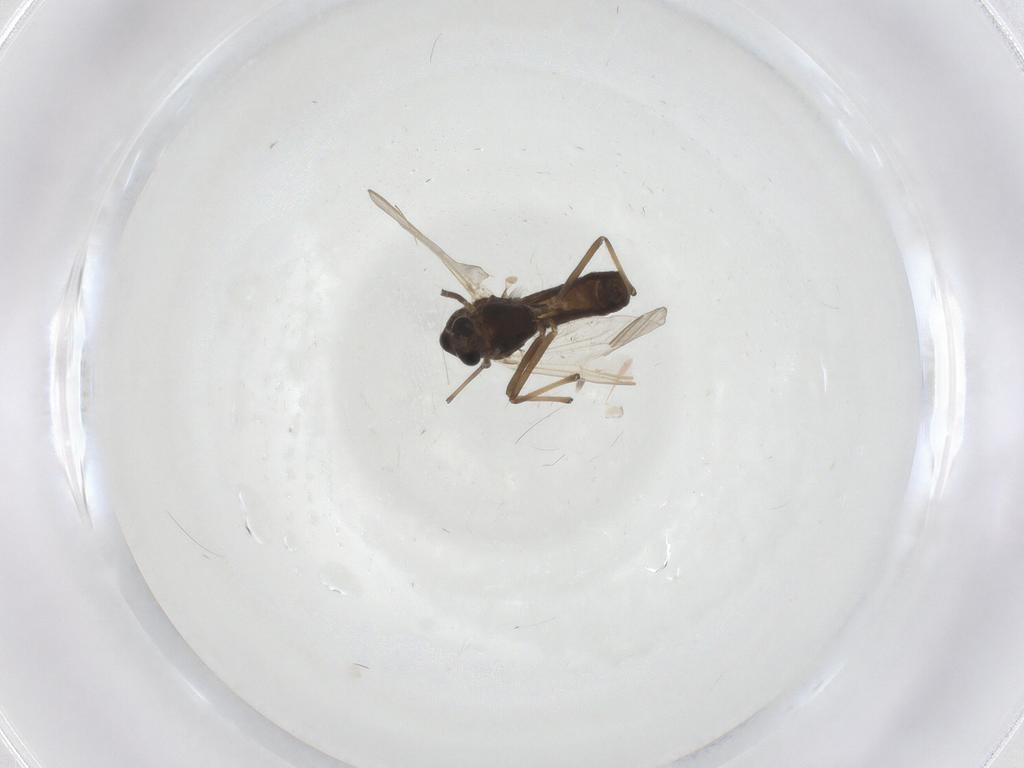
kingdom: Animalia
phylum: Arthropoda
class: Insecta
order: Diptera
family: Chironomidae
